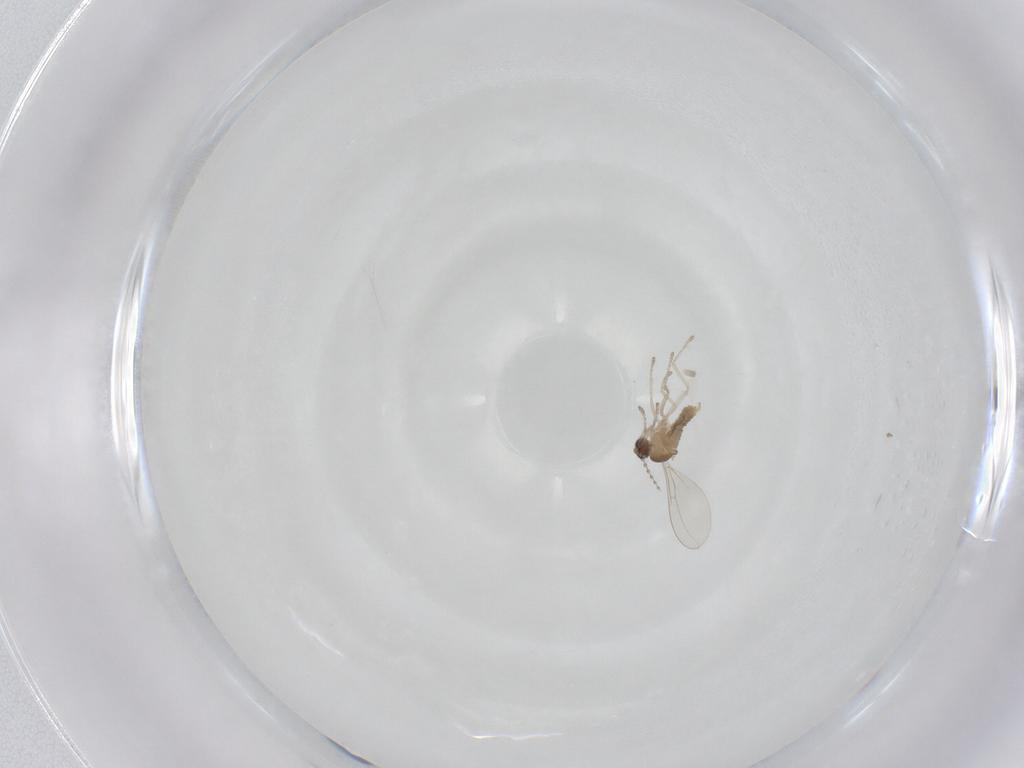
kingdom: Animalia
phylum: Arthropoda
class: Insecta
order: Diptera
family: Cecidomyiidae
